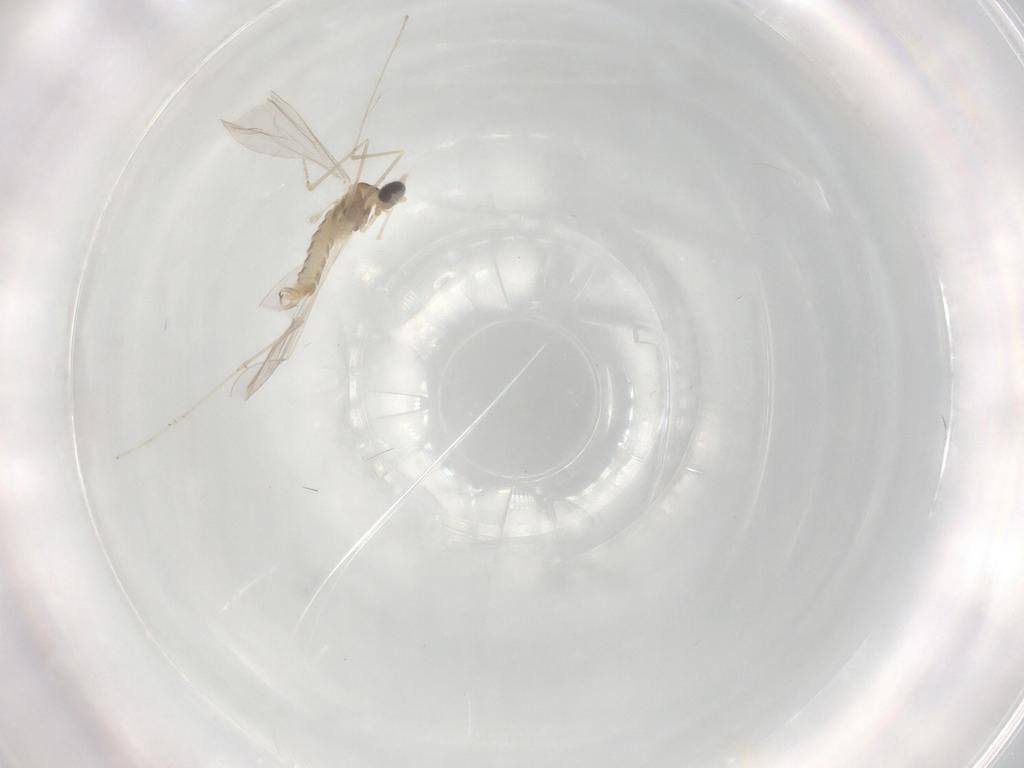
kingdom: Animalia
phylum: Arthropoda
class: Insecta
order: Diptera
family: Cecidomyiidae
